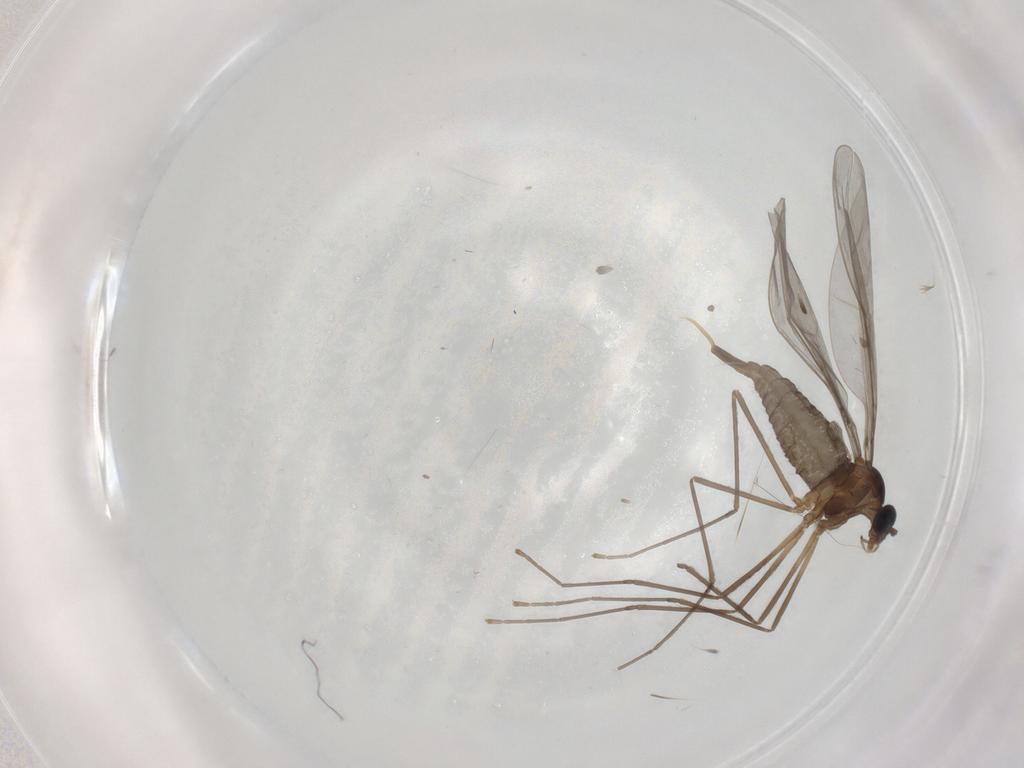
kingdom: Animalia
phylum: Arthropoda
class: Insecta
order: Diptera
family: Cecidomyiidae
